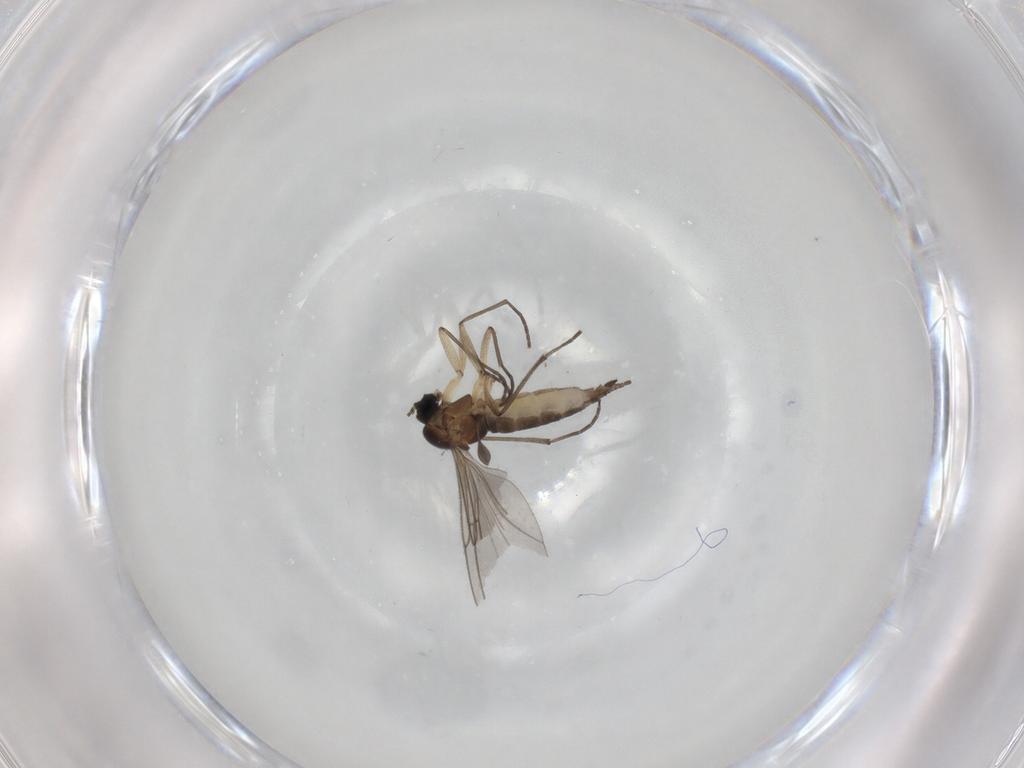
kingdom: Animalia
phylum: Arthropoda
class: Insecta
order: Diptera
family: Sciaridae
